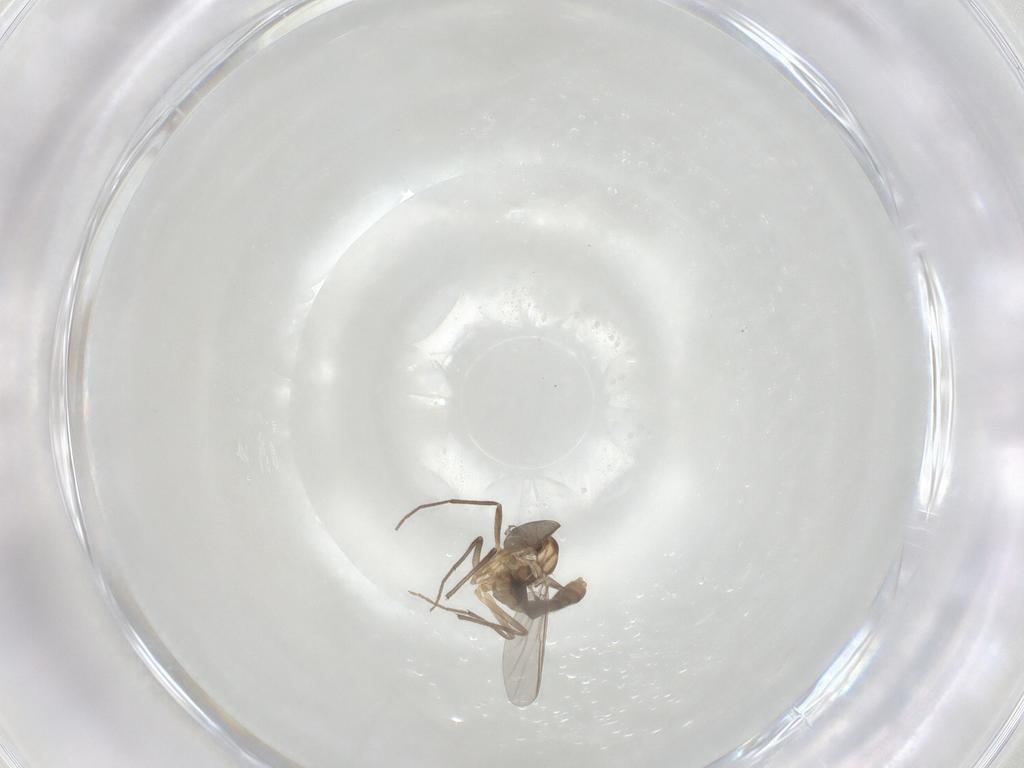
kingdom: Animalia
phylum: Arthropoda
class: Insecta
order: Diptera
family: Chironomidae
